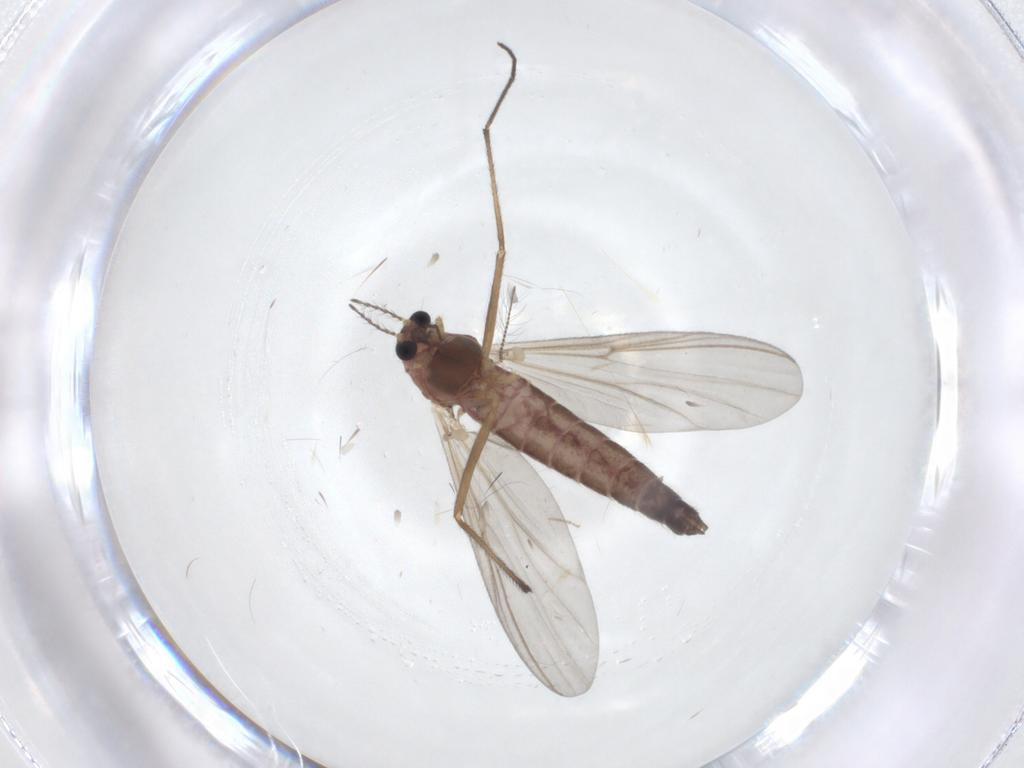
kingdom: Animalia
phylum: Arthropoda
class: Insecta
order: Diptera
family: Chironomidae
